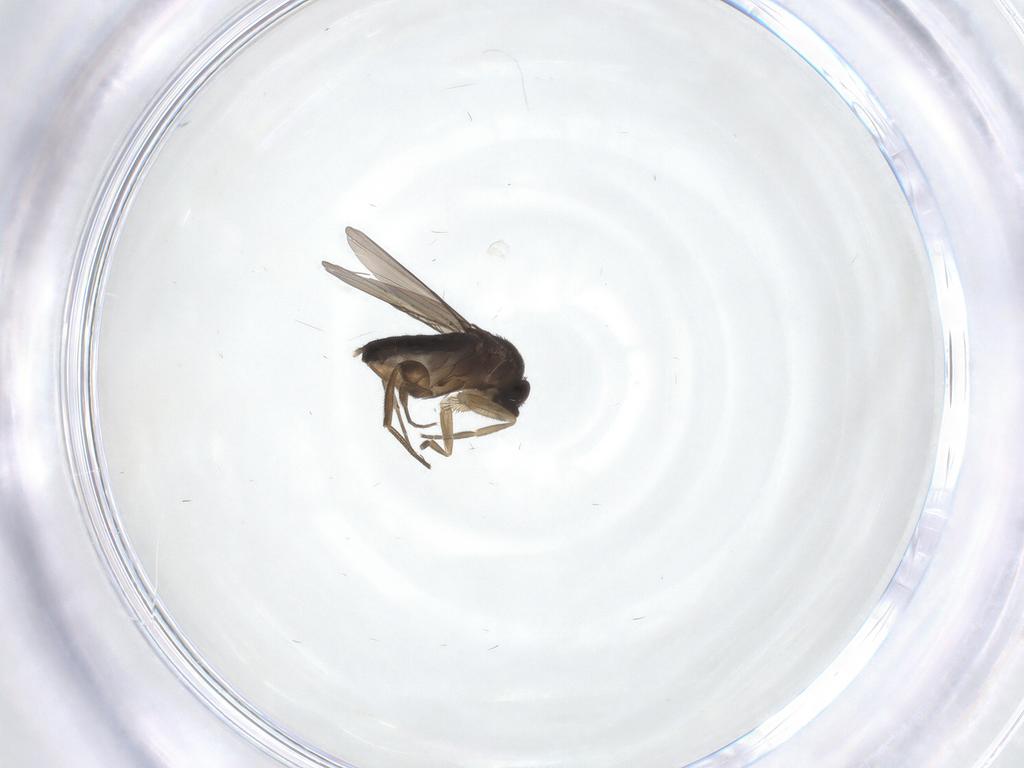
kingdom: Animalia
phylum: Arthropoda
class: Insecta
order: Diptera
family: Phoridae
